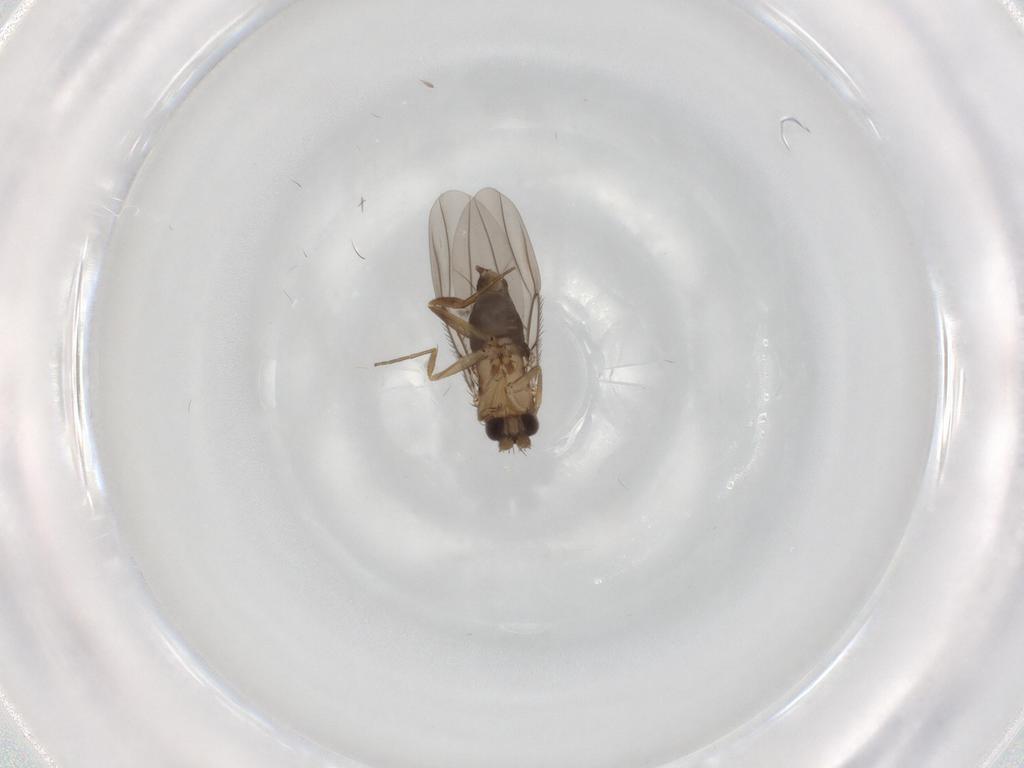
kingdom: Animalia
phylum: Arthropoda
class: Insecta
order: Diptera
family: Phoridae
